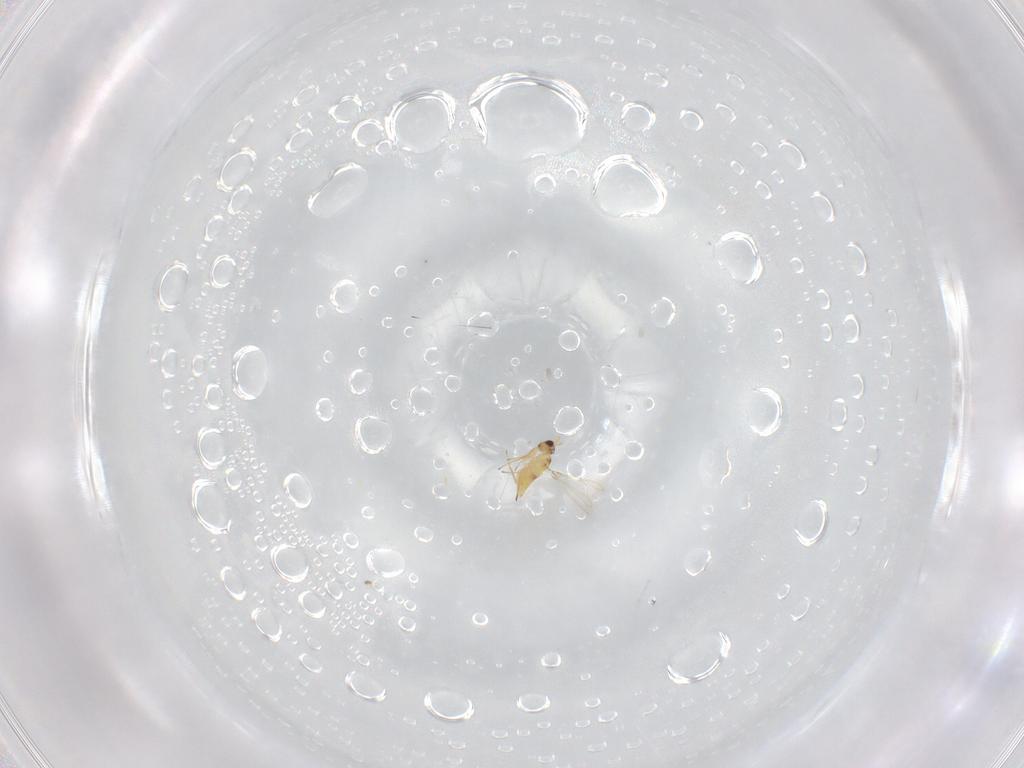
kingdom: Animalia
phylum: Arthropoda
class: Insecta
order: Hymenoptera
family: Mymaridae
